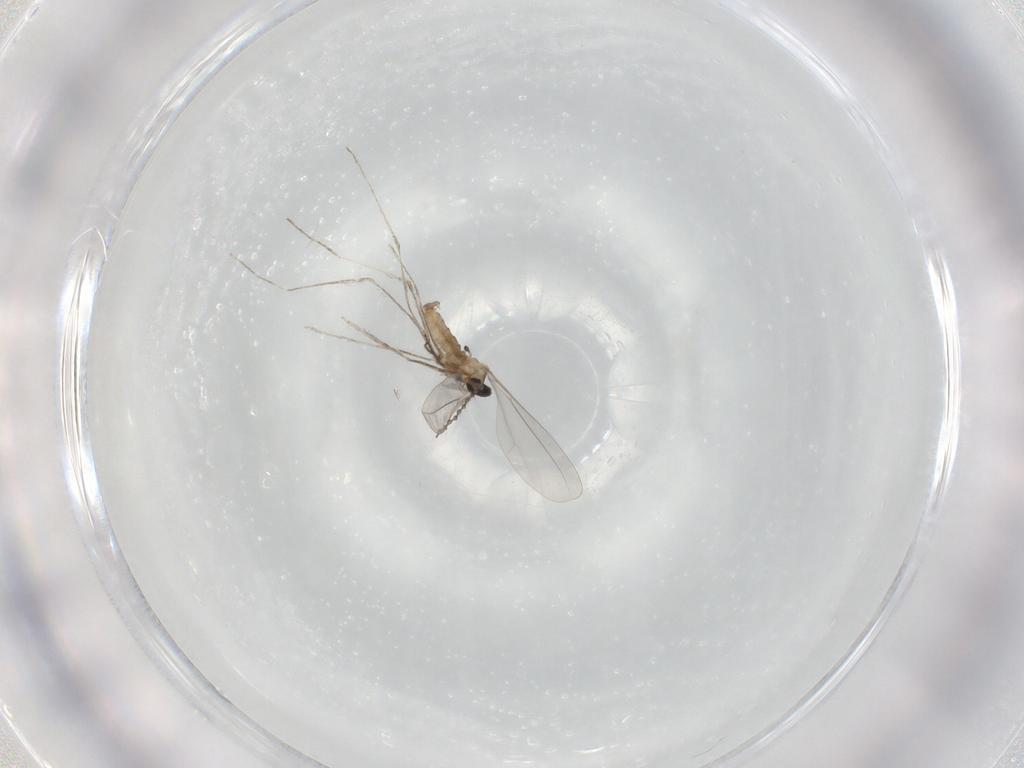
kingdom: Animalia
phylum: Arthropoda
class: Insecta
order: Diptera
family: Cecidomyiidae
